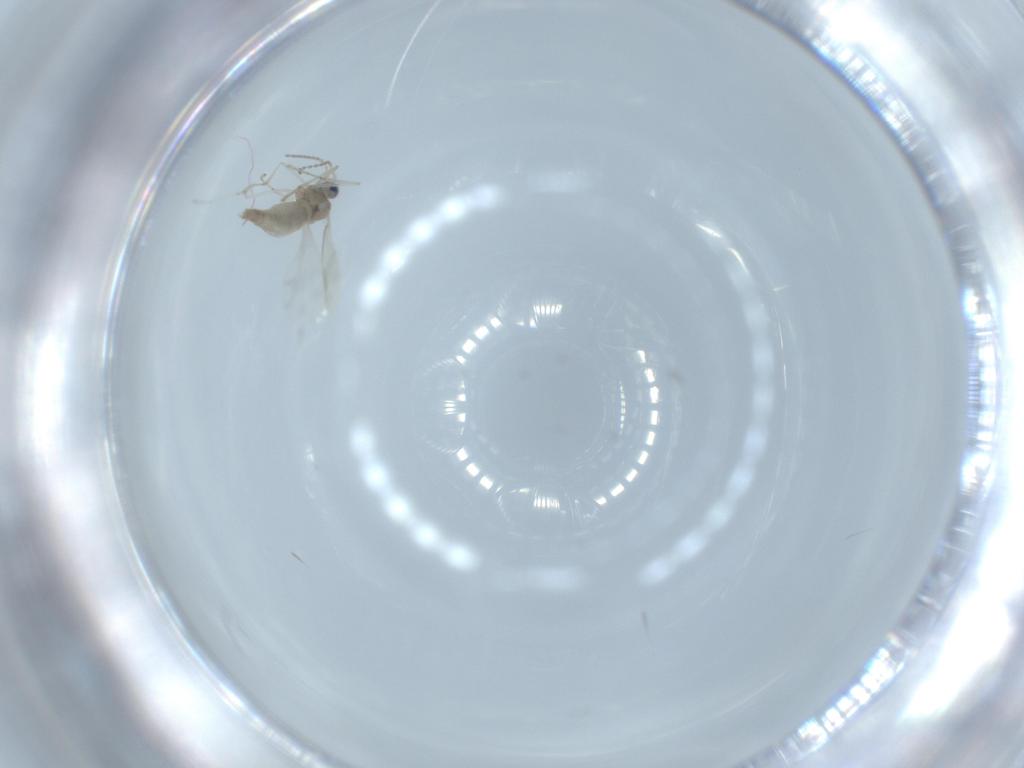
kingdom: Animalia
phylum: Arthropoda
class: Insecta
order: Diptera
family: Cecidomyiidae
